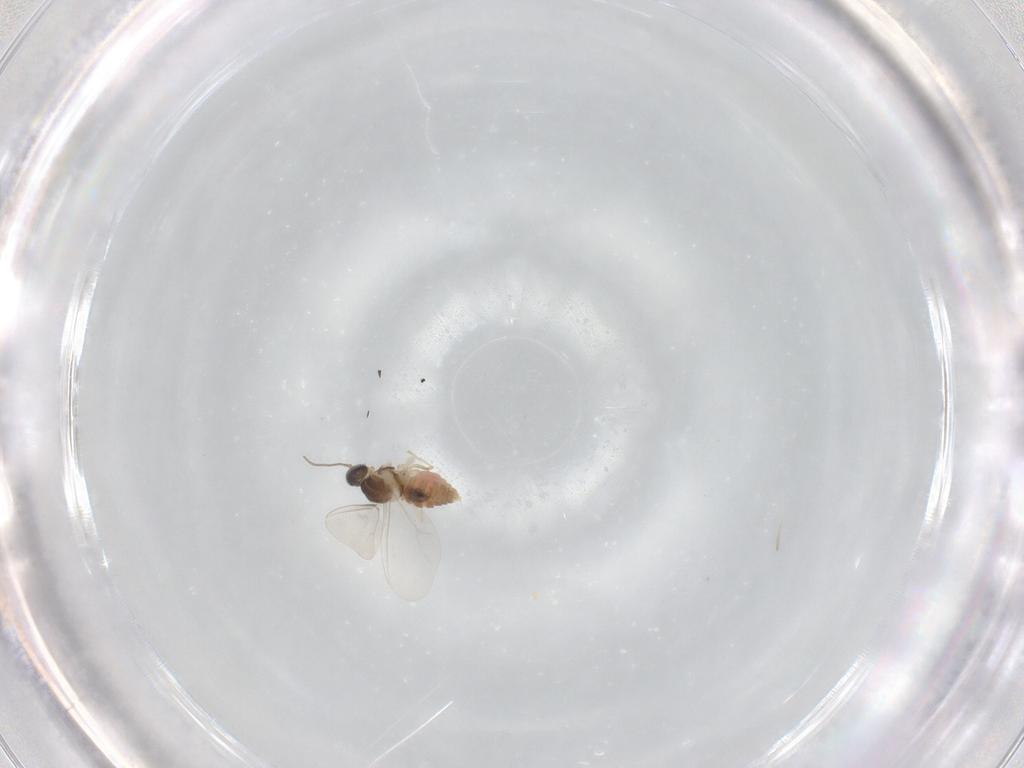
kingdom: Animalia
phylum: Arthropoda
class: Insecta
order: Diptera
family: Cecidomyiidae
